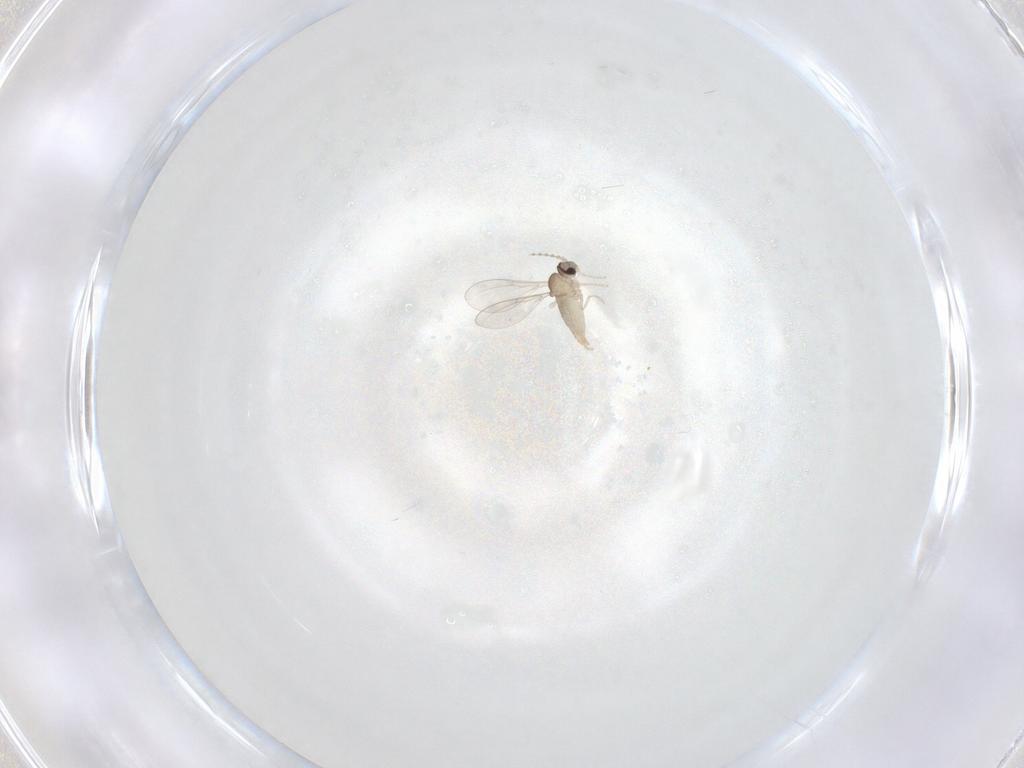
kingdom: Animalia
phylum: Arthropoda
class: Insecta
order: Diptera
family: Cecidomyiidae
